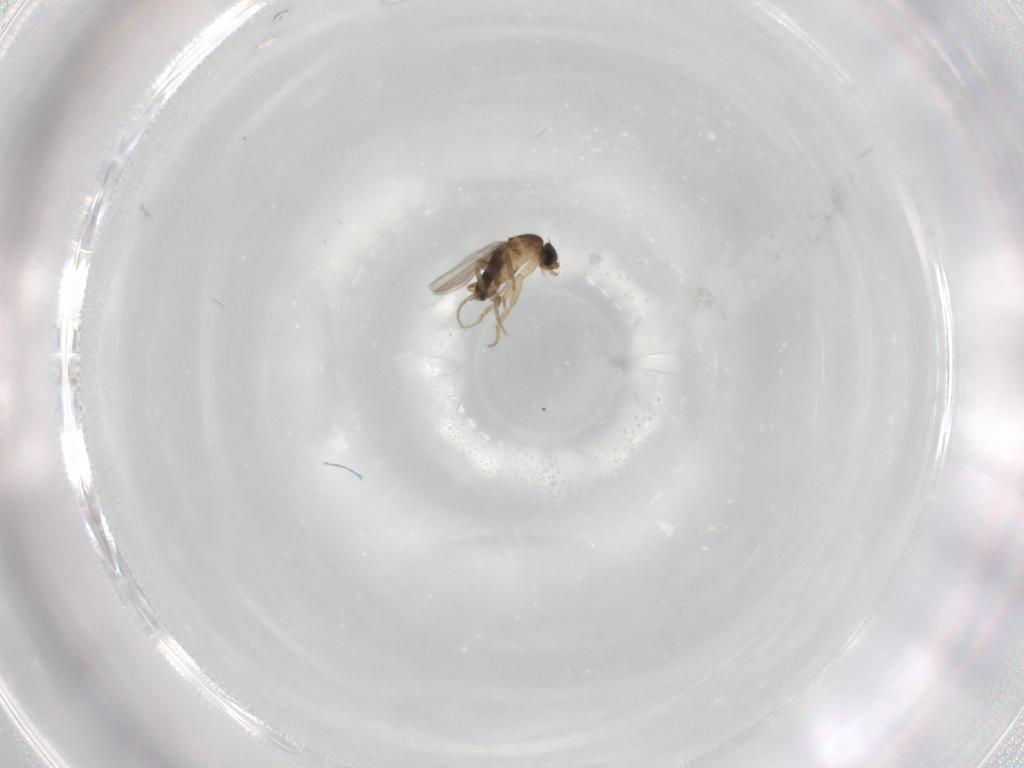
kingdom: Animalia
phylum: Arthropoda
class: Insecta
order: Diptera
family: Phoridae
